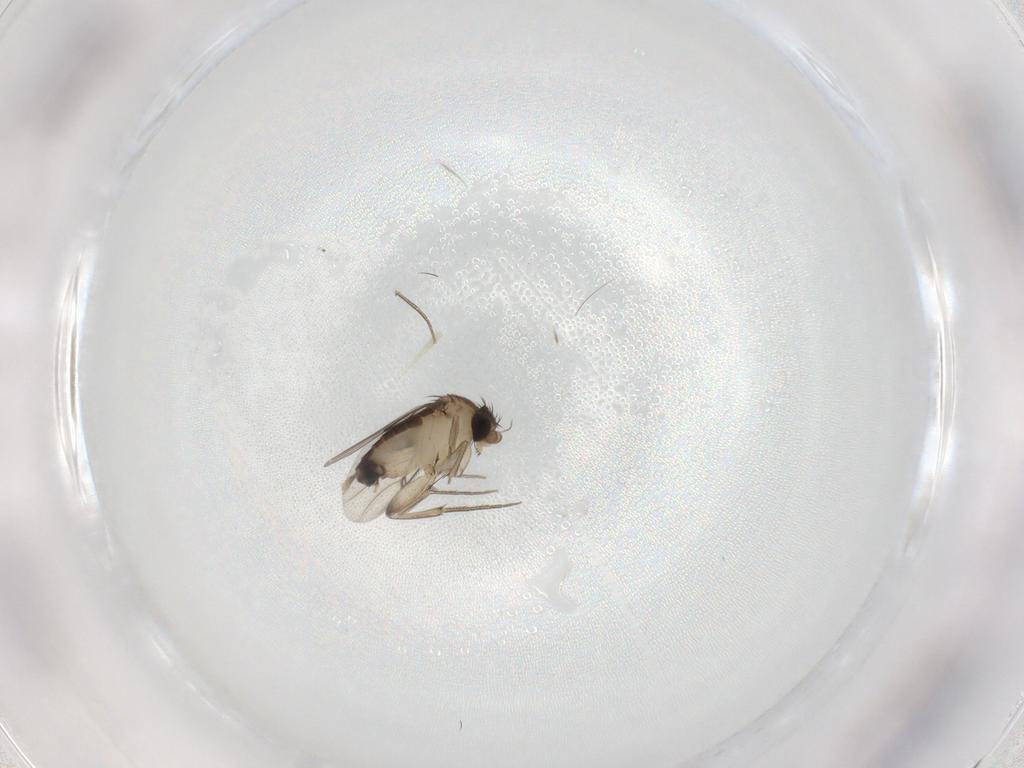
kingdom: Animalia
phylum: Arthropoda
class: Insecta
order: Diptera
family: Phoridae
